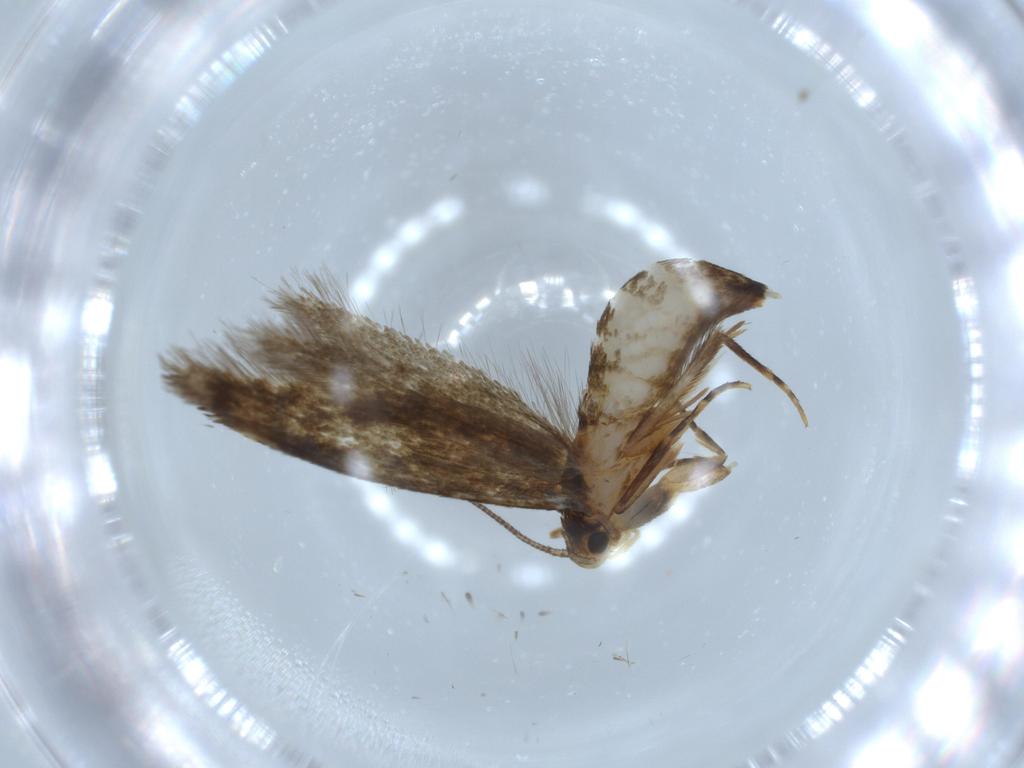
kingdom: Animalia
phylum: Arthropoda
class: Insecta
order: Lepidoptera
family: Tineidae
